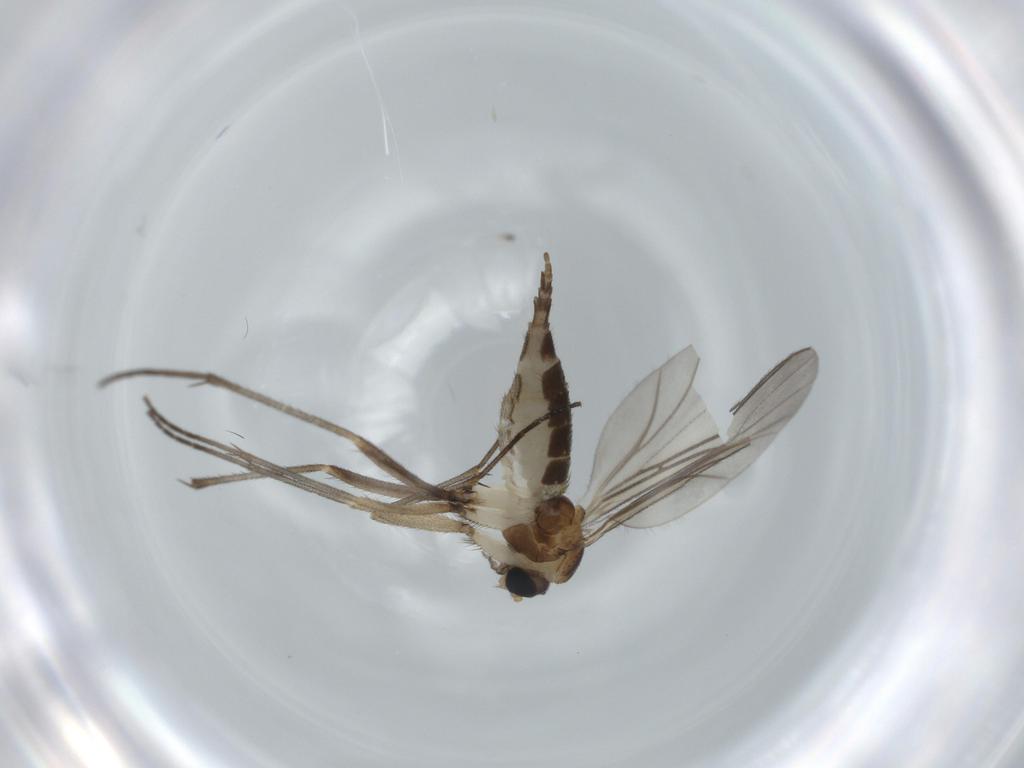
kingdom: Animalia
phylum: Arthropoda
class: Insecta
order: Diptera
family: Sciaridae
